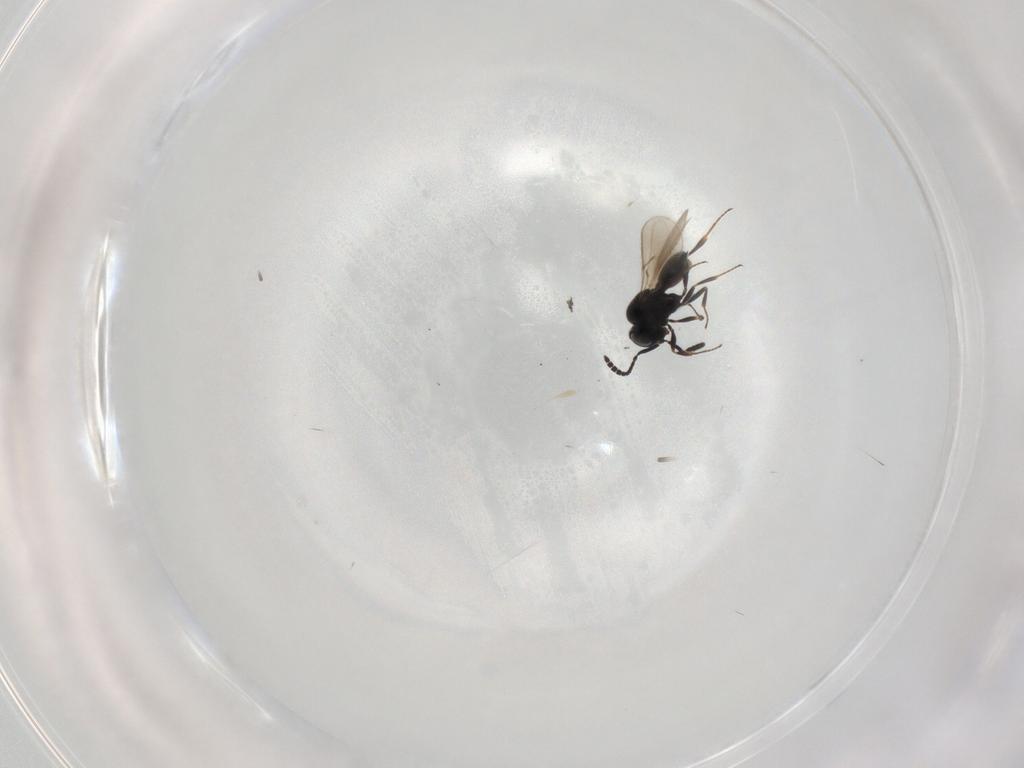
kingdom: Animalia
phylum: Arthropoda
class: Insecta
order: Hymenoptera
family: Scelionidae
